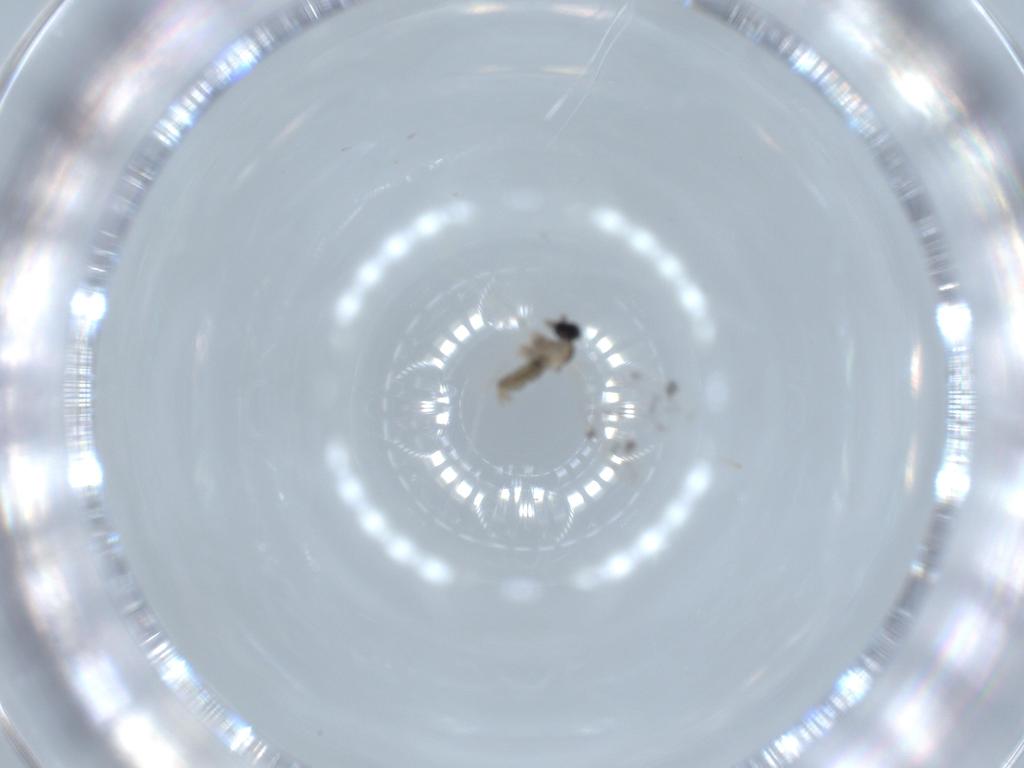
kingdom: Animalia
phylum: Arthropoda
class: Insecta
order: Diptera
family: Cecidomyiidae
